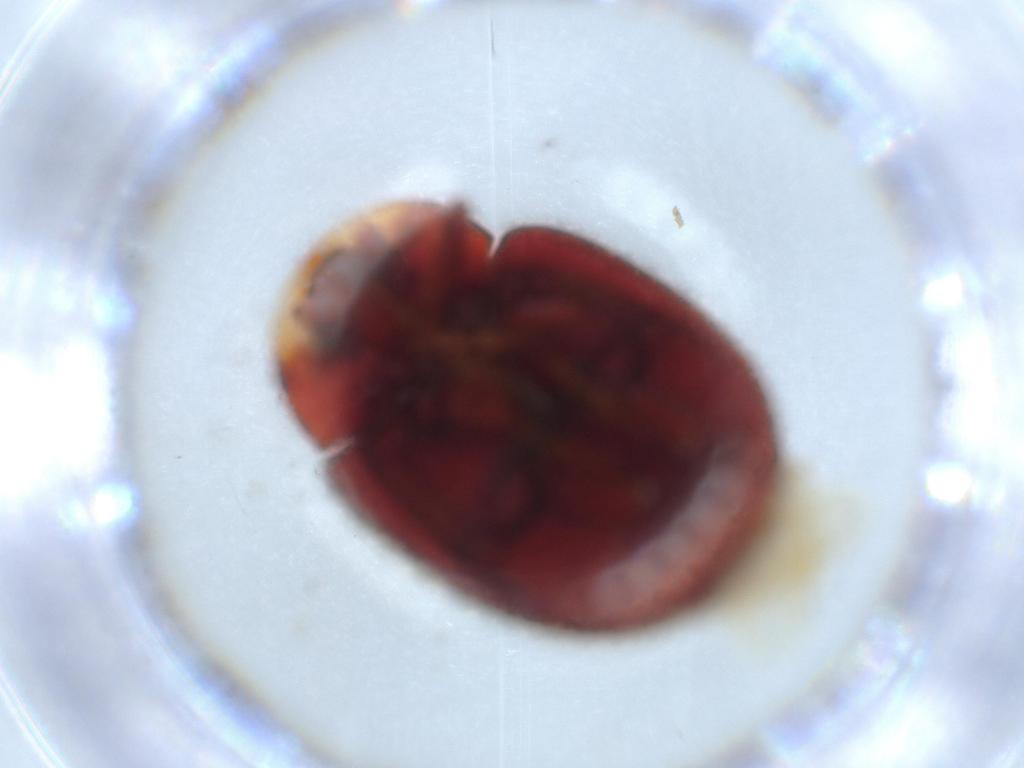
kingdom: Animalia
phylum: Arthropoda
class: Insecta
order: Coleoptera
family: Coccinellidae
